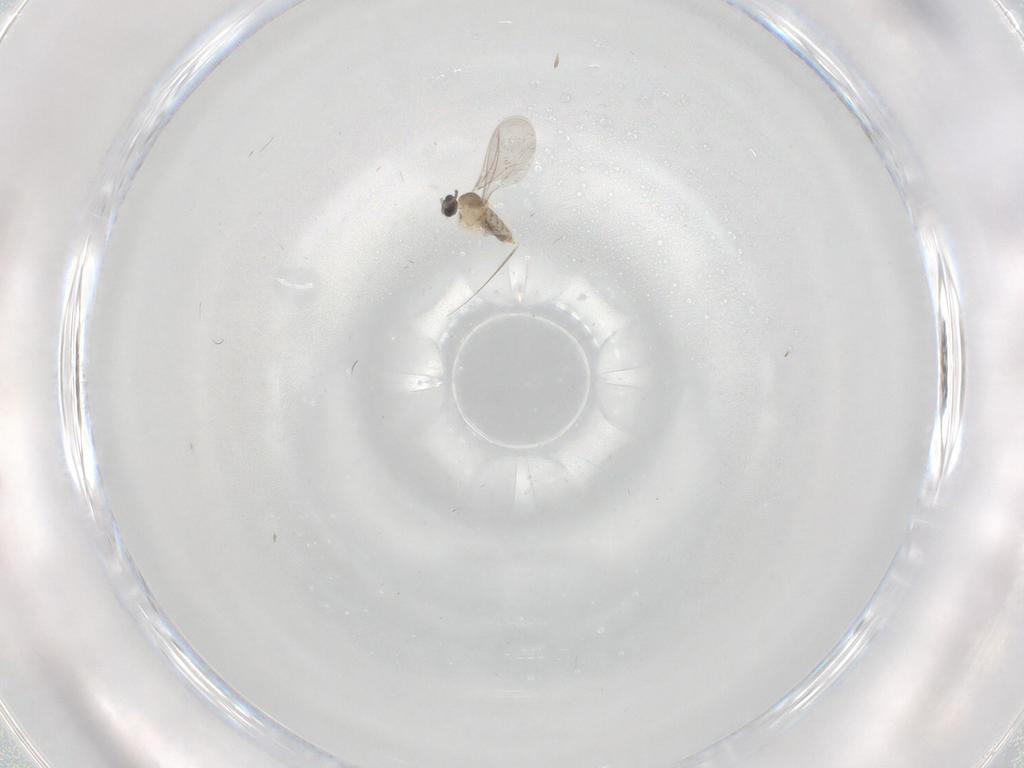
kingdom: Animalia
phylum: Arthropoda
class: Insecta
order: Diptera
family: Ceratopogonidae
